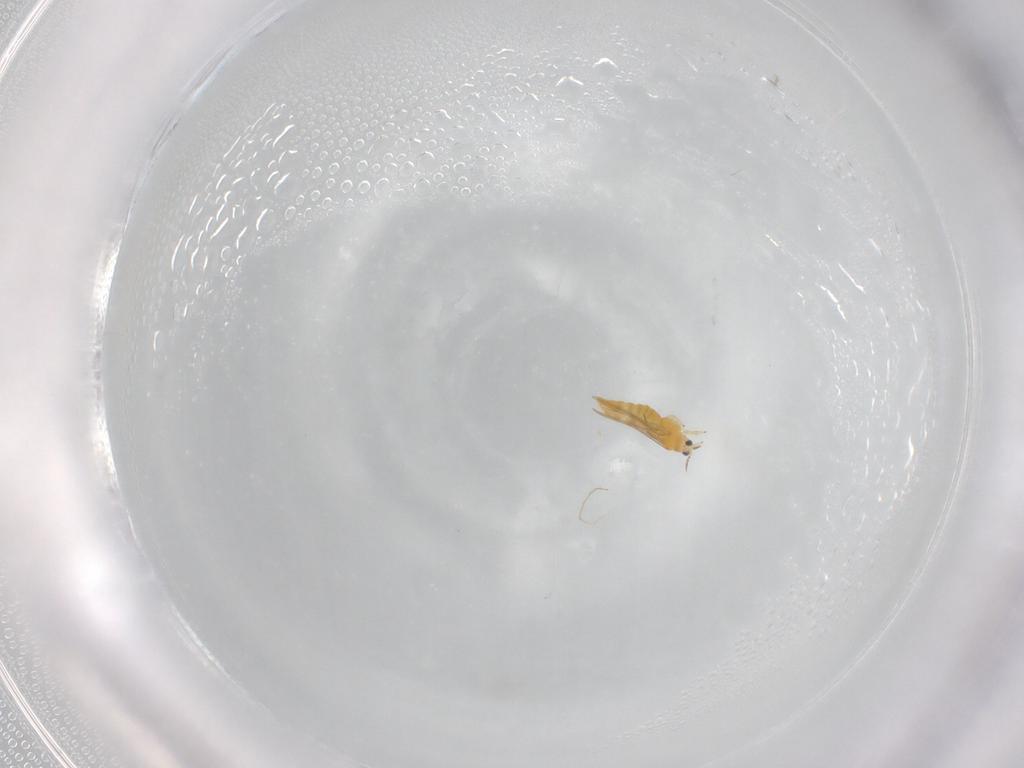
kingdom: Animalia
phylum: Arthropoda
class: Insecta
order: Thysanoptera
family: Thripidae
